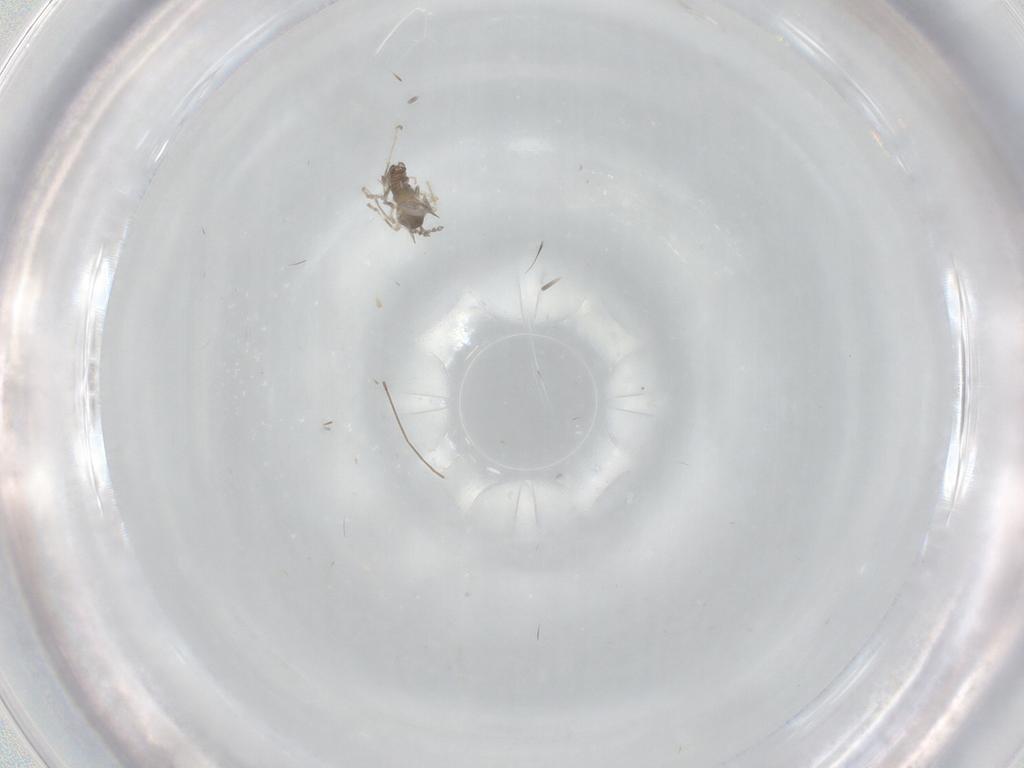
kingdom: Animalia
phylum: Arthropoda
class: Insecta
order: Diptera
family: Cecidomyiidae
